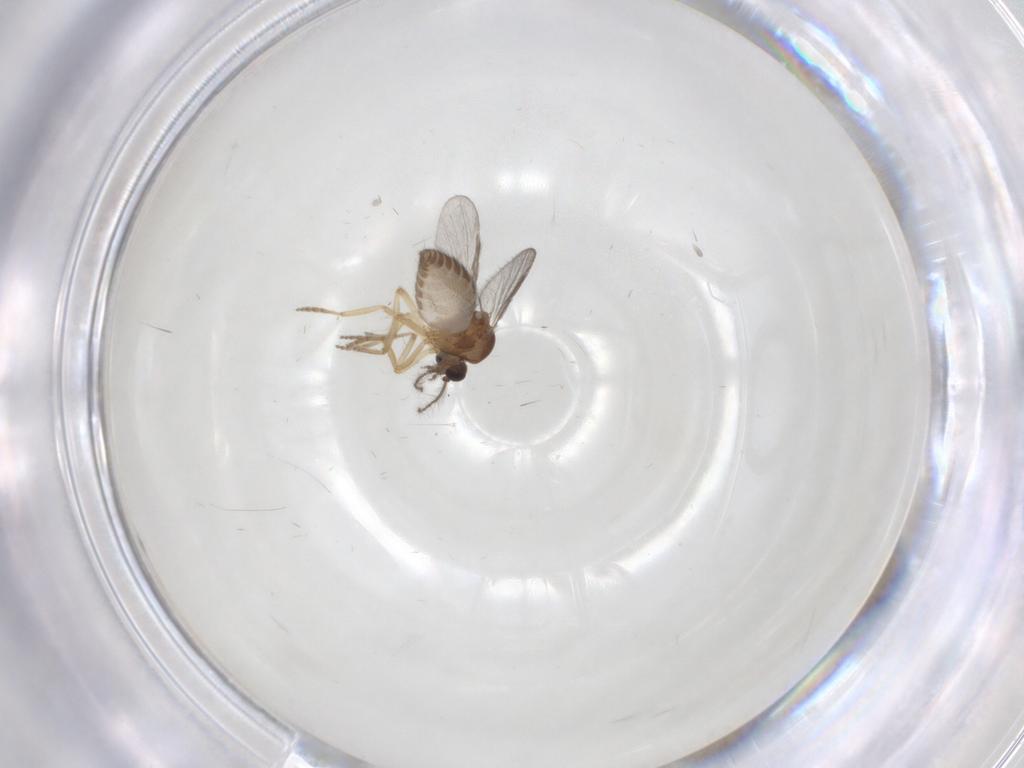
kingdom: Animalia
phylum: Arthropoda
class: Insecta
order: Diptera
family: Ceratopogonidae
